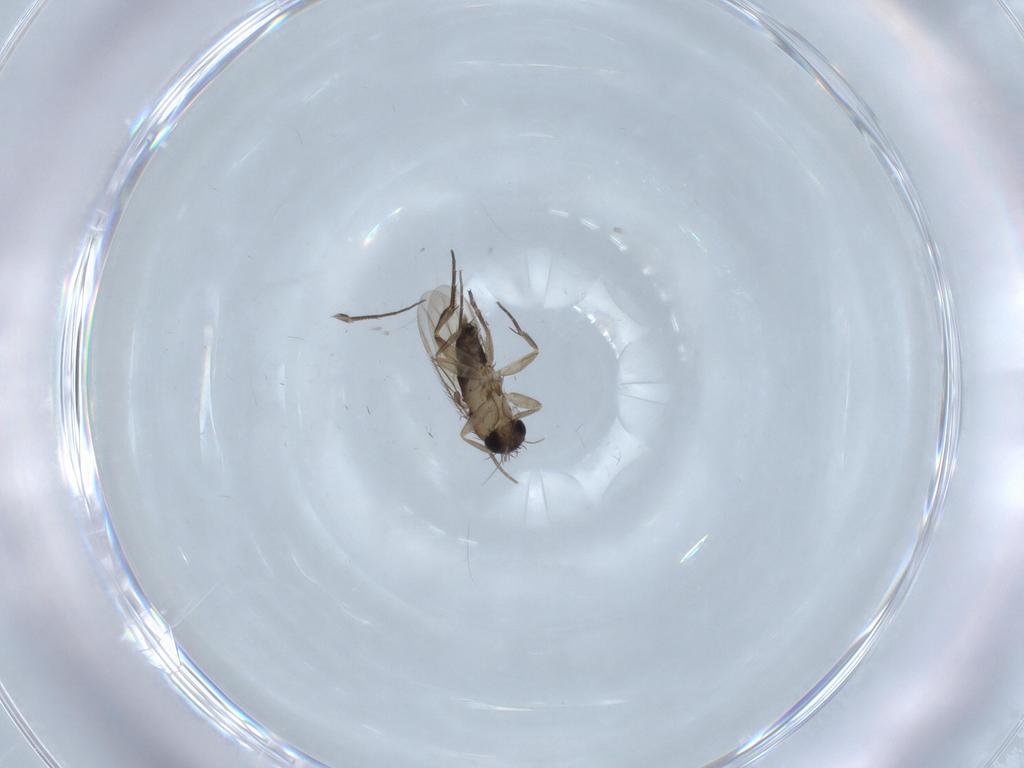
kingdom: Animalia
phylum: Arthropoda
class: Insecta
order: Diptera
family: Phoridae
